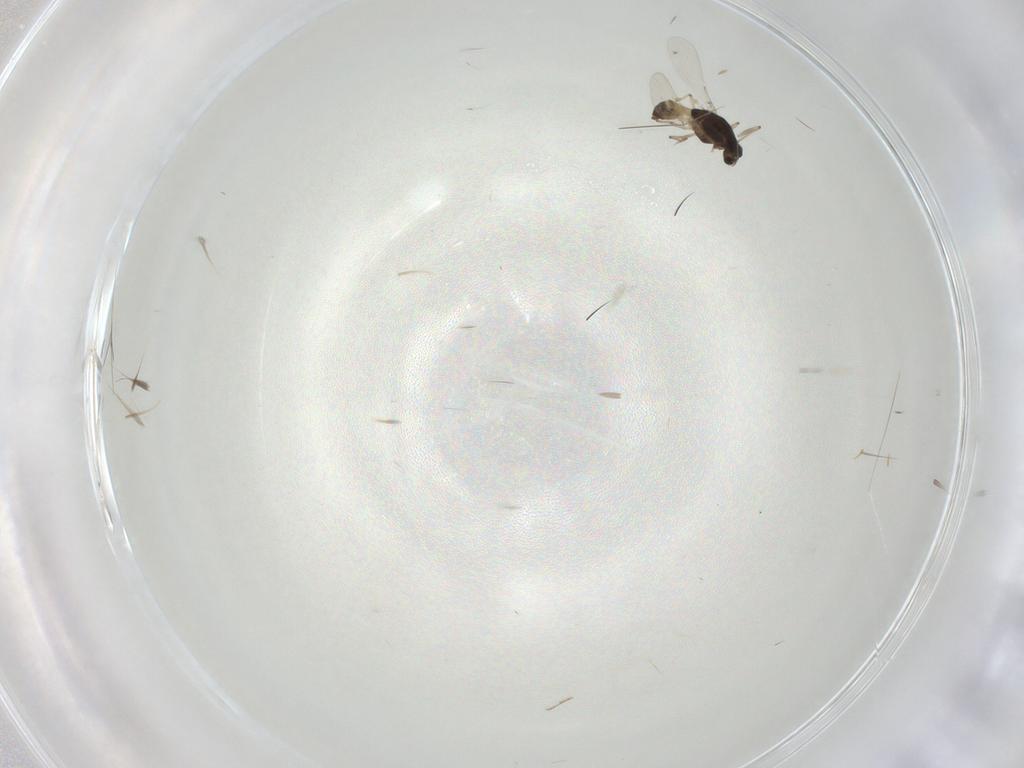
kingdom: Animalia
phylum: Arthropoda
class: Insecta
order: Diptera
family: Chironomidae
